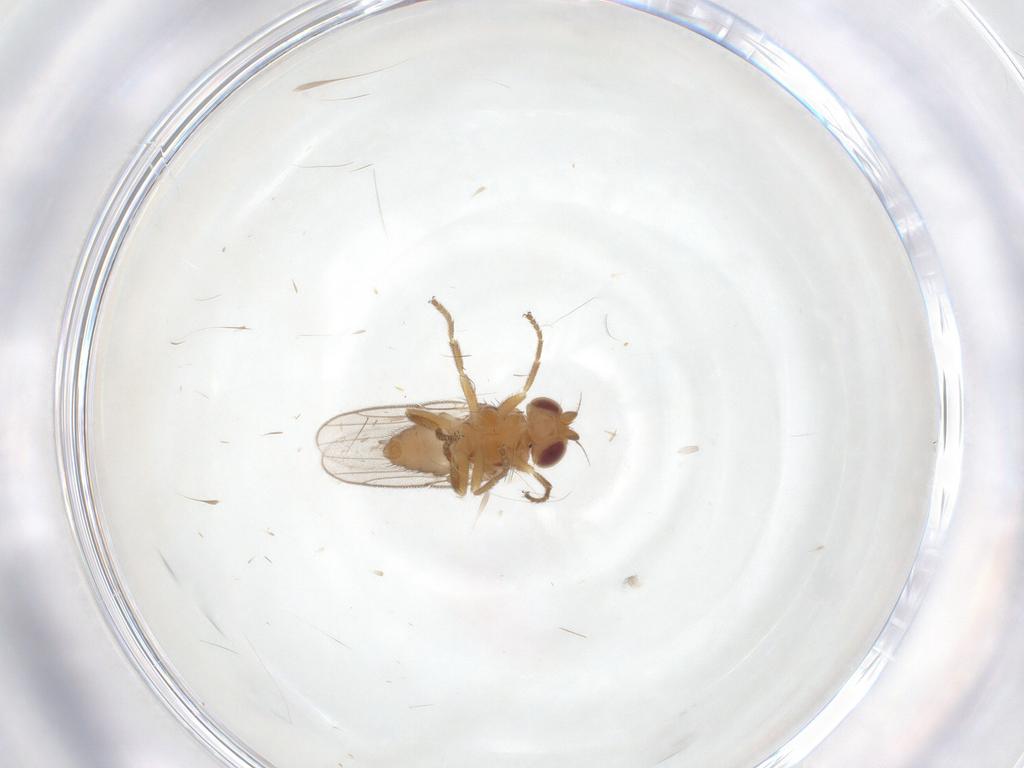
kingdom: Animalia
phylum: Arthropoda
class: Insecta
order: Diptera
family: Chloropidae
